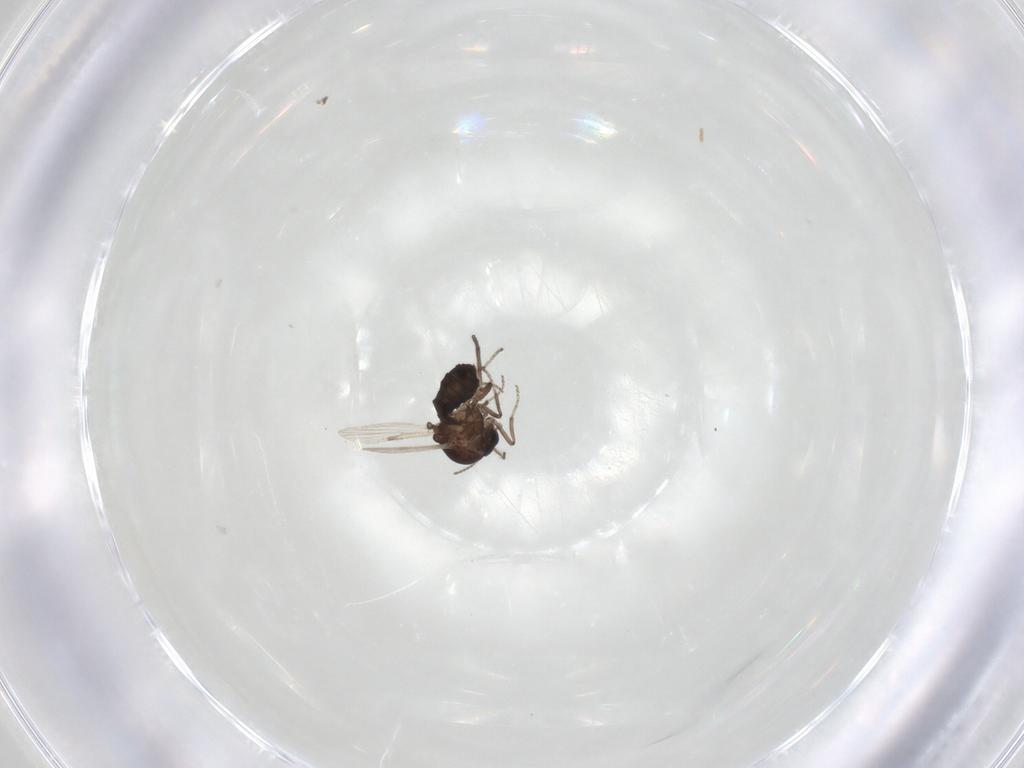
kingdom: Animalia
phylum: Arthropoda
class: Insecta
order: Diptera
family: Ceratopogonidae
